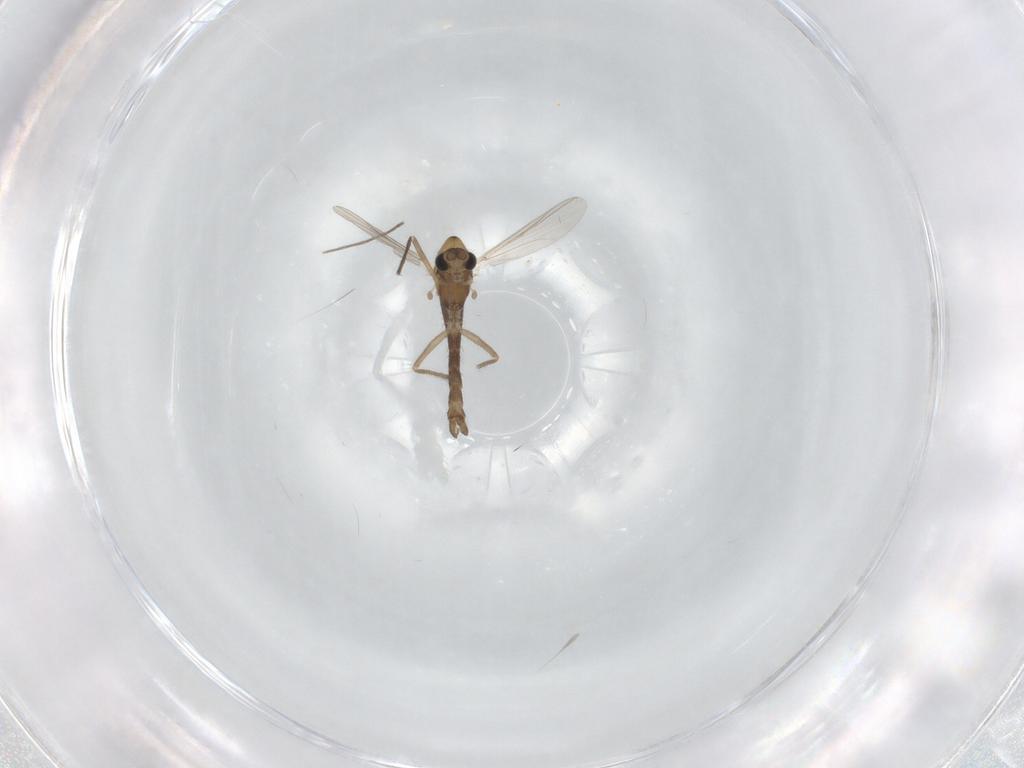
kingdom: Animalia
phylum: Arthropoda
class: Insecta
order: Diptera
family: Chironomidae
